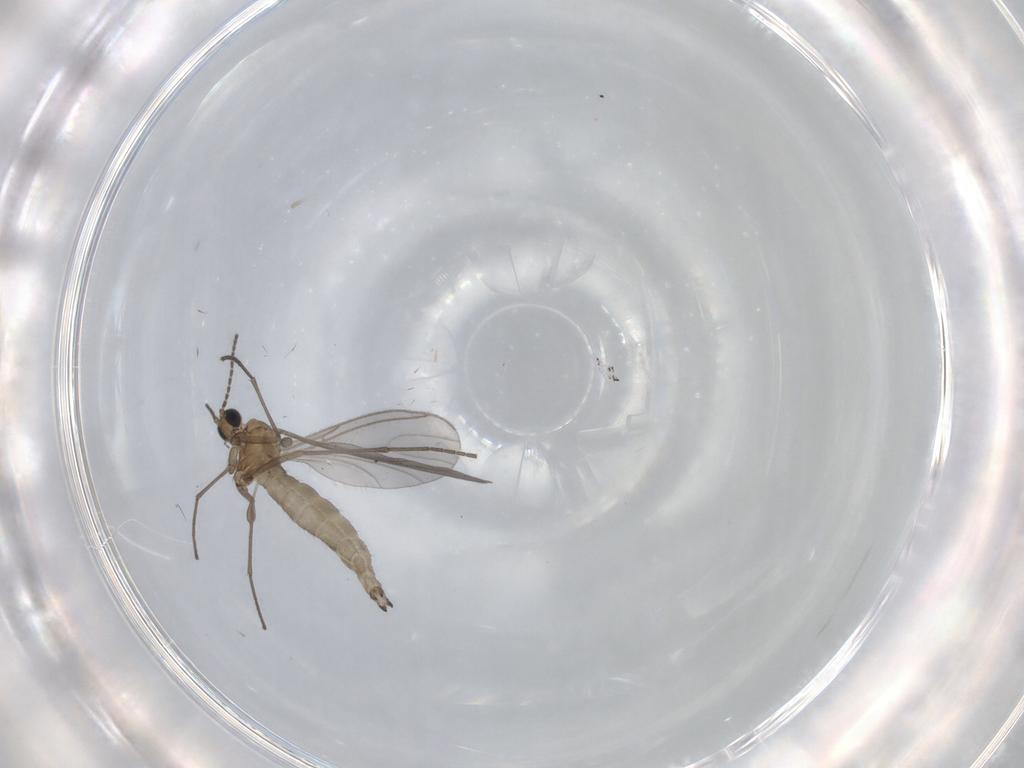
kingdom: Animalia
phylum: Arthropoda
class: Insecta
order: Diptera
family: Sciaridae
